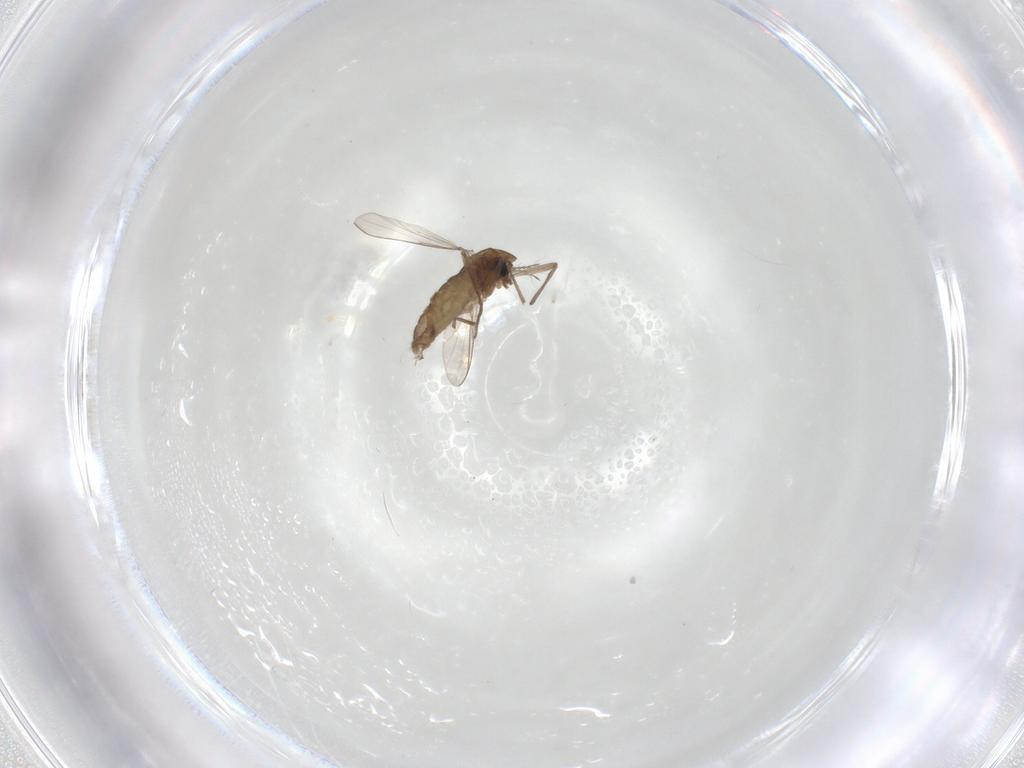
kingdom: Animalia
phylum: Arthropoda
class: Insecta
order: Diptera
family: Chironomidae
